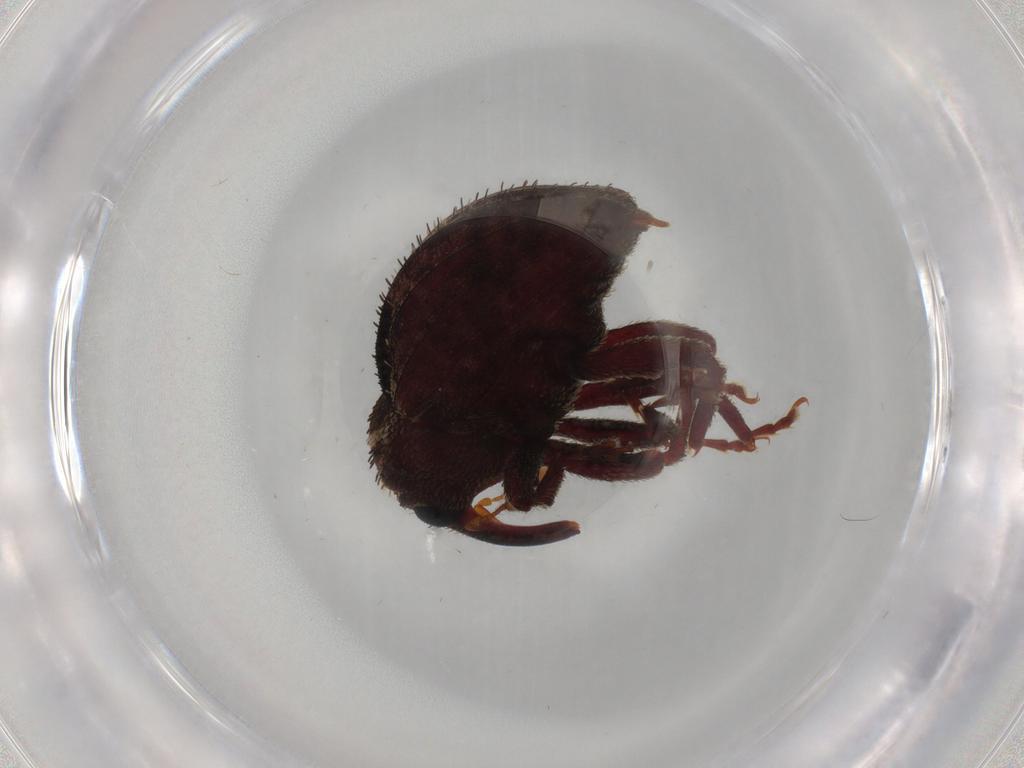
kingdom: Animalia
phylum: Arthropoda
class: Insecta
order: Coleoptera
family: Curculionidae
